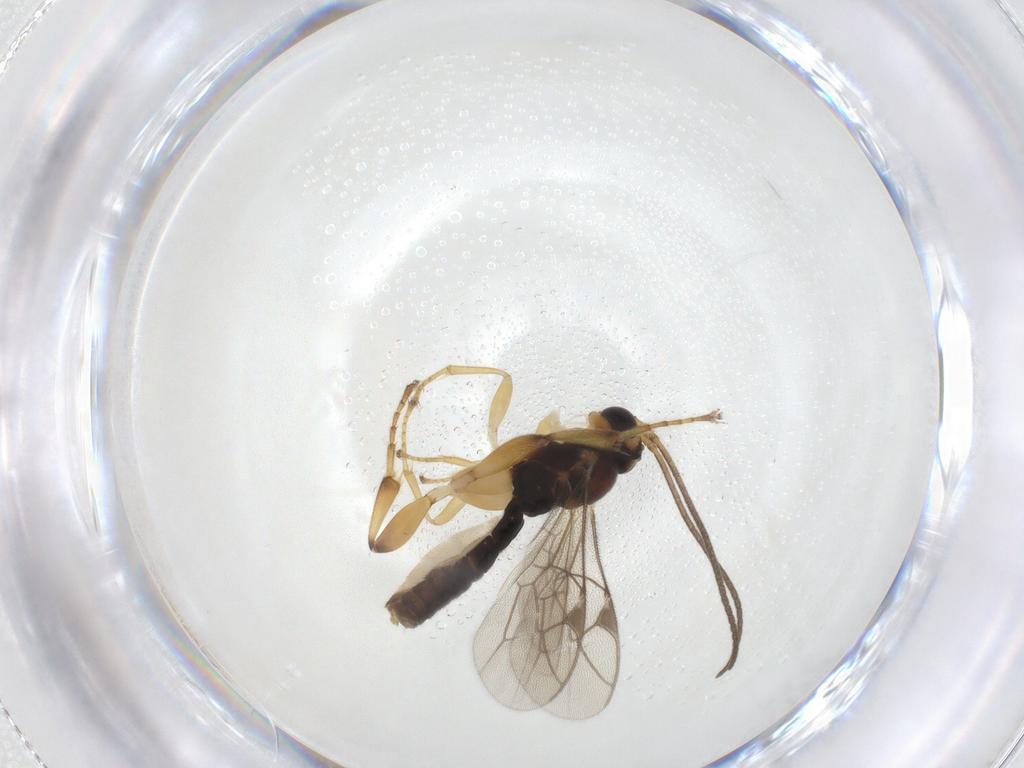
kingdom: Animalia
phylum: Arthropoda
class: Insecta
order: Hymenoptera
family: Ichneumonidae
